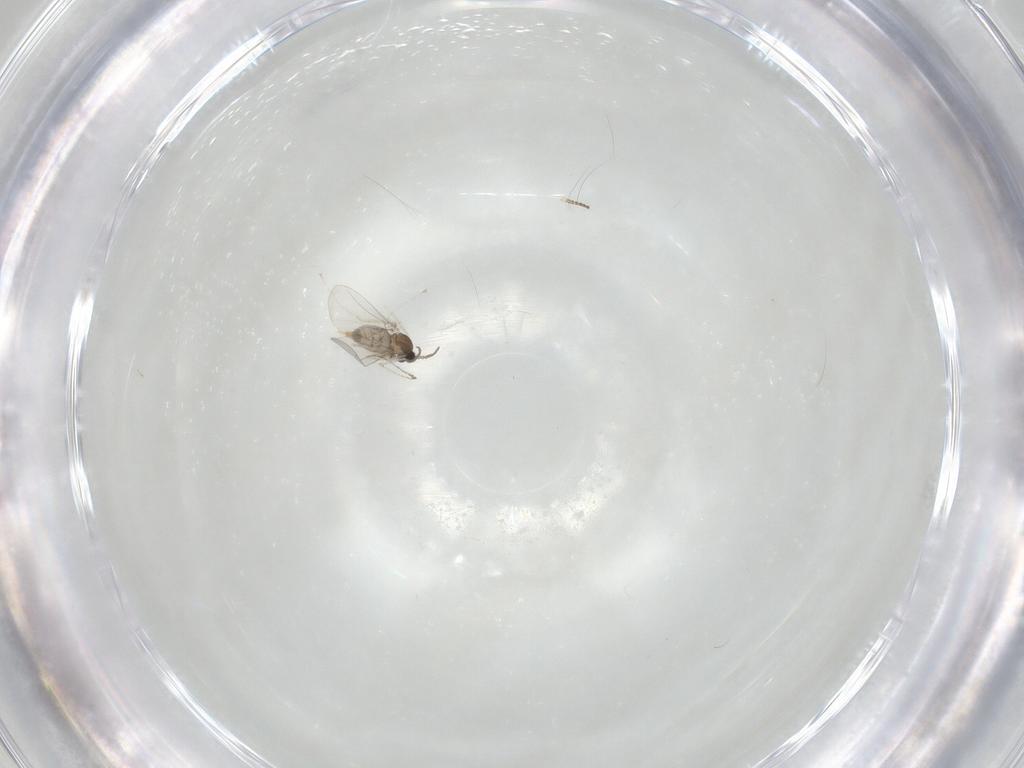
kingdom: Animalia
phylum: Arthropoda
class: Insecta
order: Diptera
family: Cecidomyiidae
